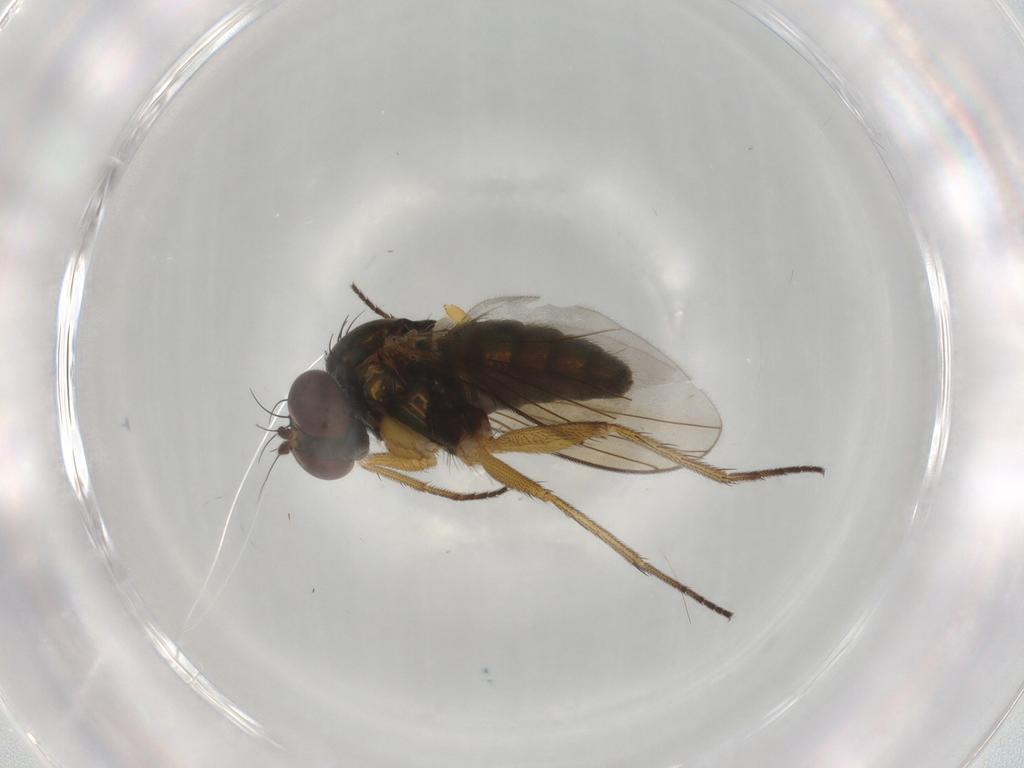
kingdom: Animalia
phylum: Arthropoda
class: Insecta
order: Diptera
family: Dolichopodidae
